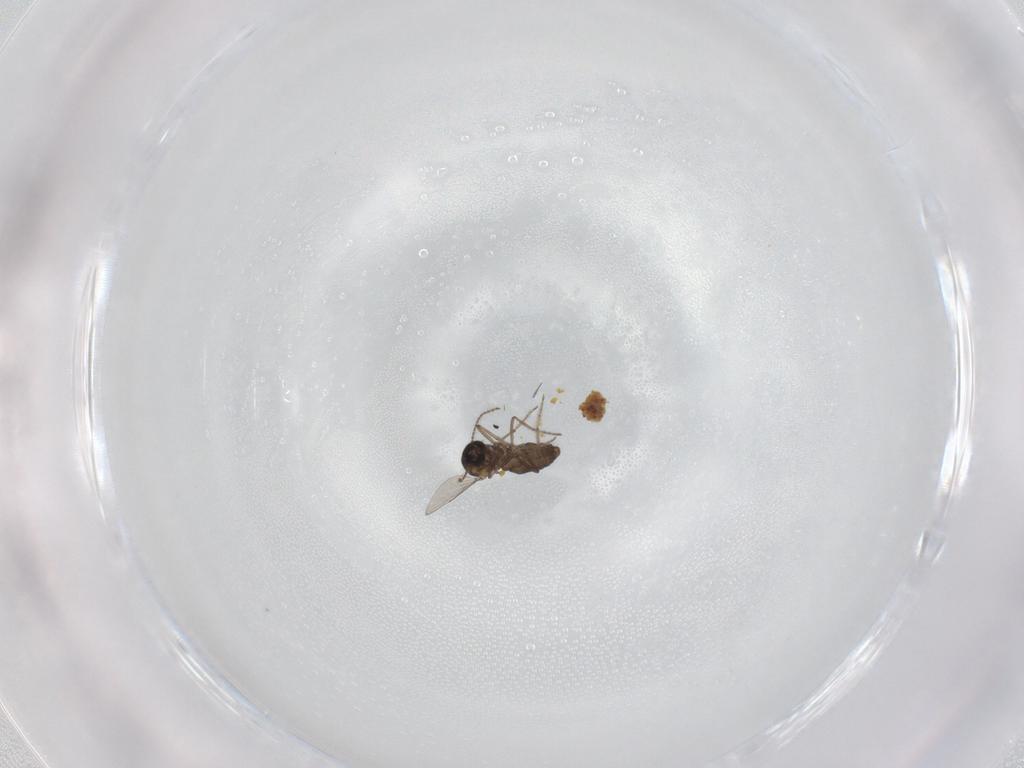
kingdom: Animalia
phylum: Arthropoda
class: Insecta
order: Diptera
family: Ceratopogonidae
